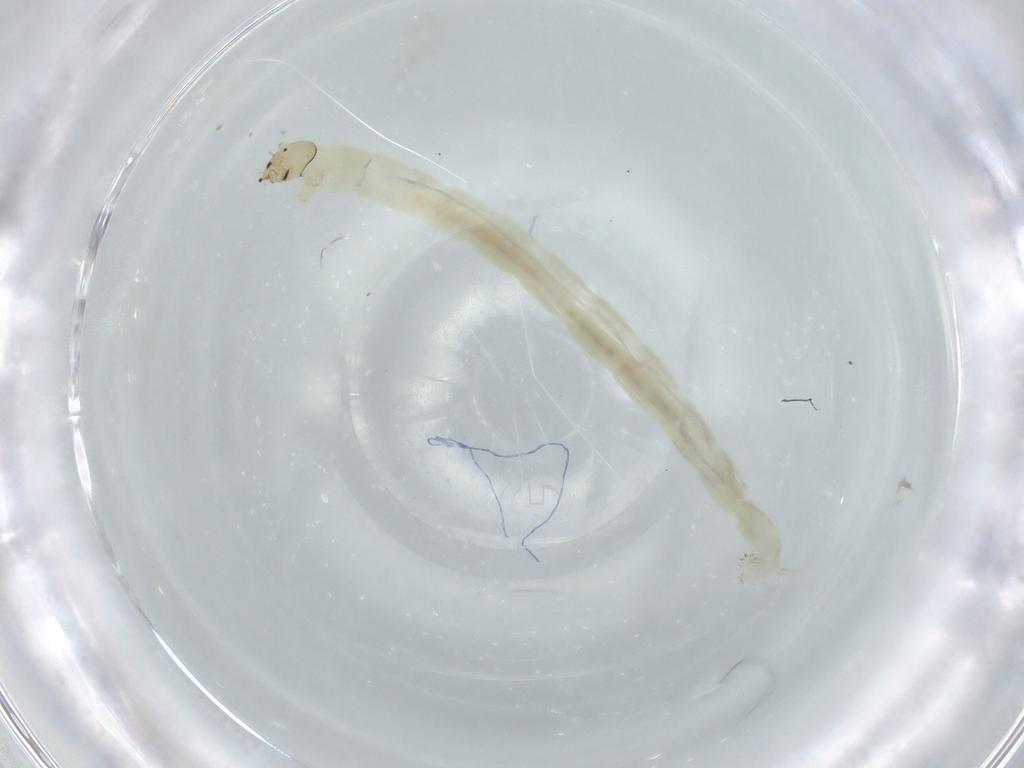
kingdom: Animalia
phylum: Arthropoda
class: Insecta
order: Diptera
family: Chironomidae
